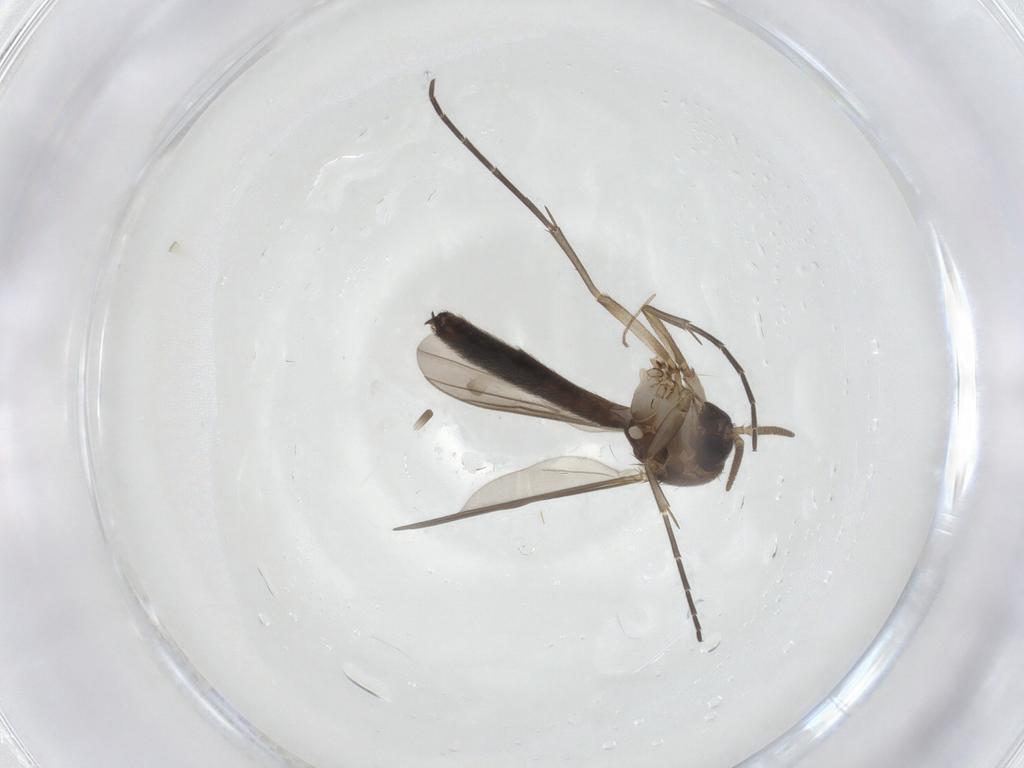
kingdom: Animalia
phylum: Arthropoda
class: Insecta
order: Diptera
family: Mycetophilidae
